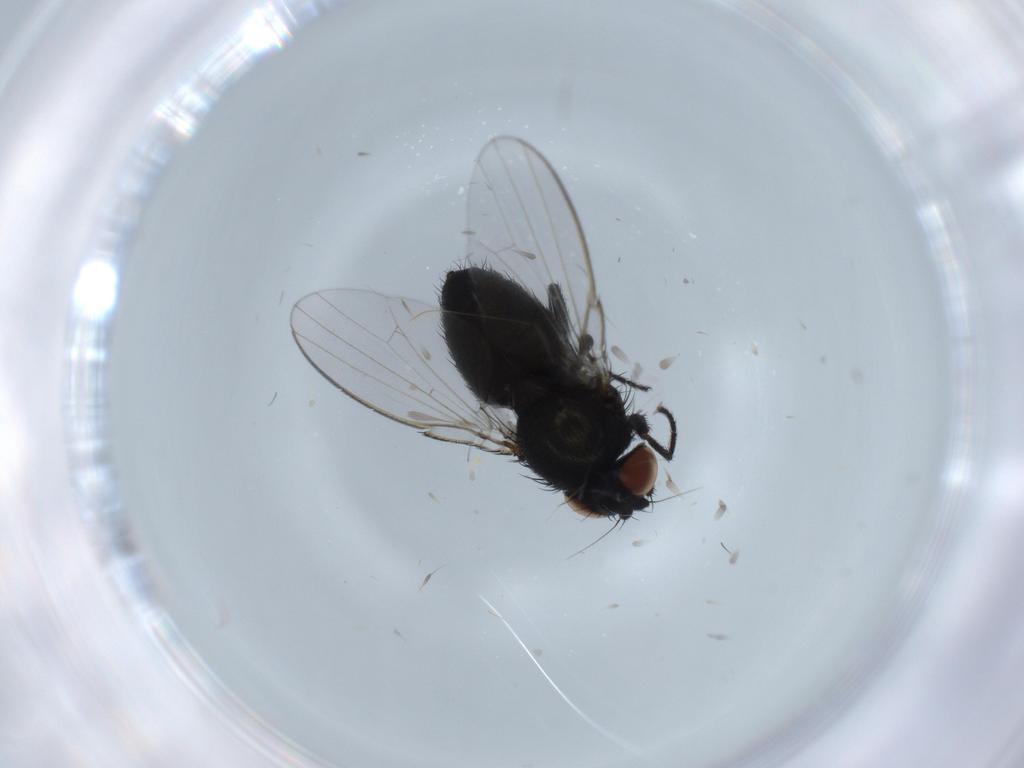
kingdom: Animalia
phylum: Arthropoda
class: Insecta
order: Diptera
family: Milichiidae
